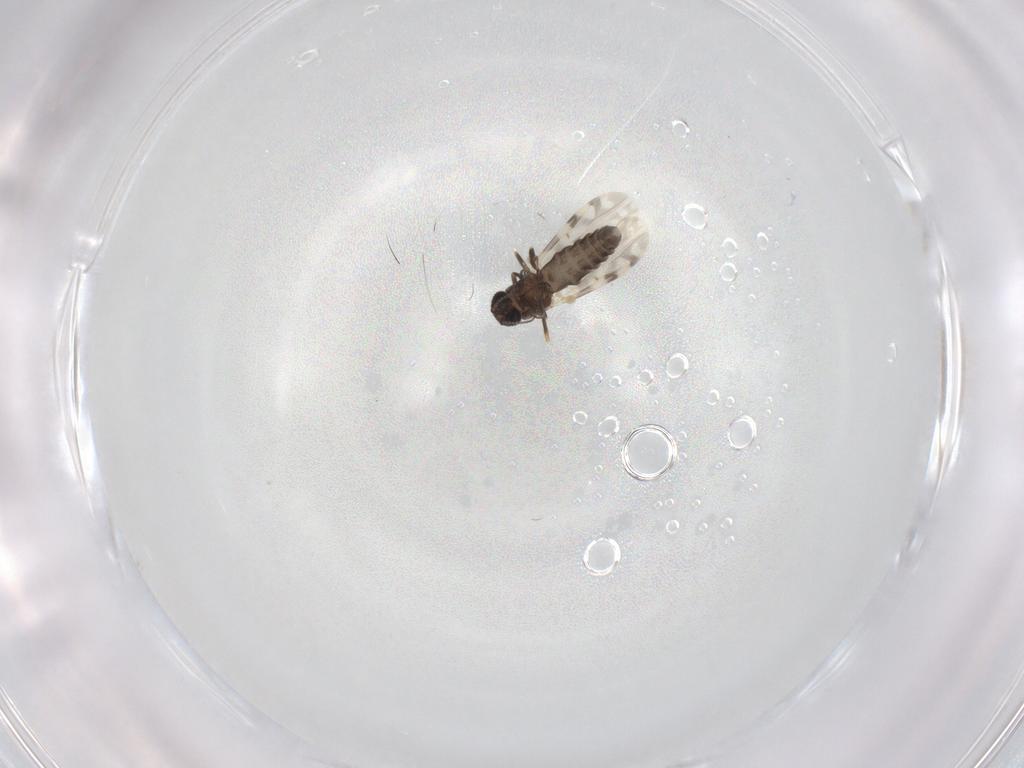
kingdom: Animalia
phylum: Arthropoda
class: Insecta
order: Diptera
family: Ceratopogonidae
